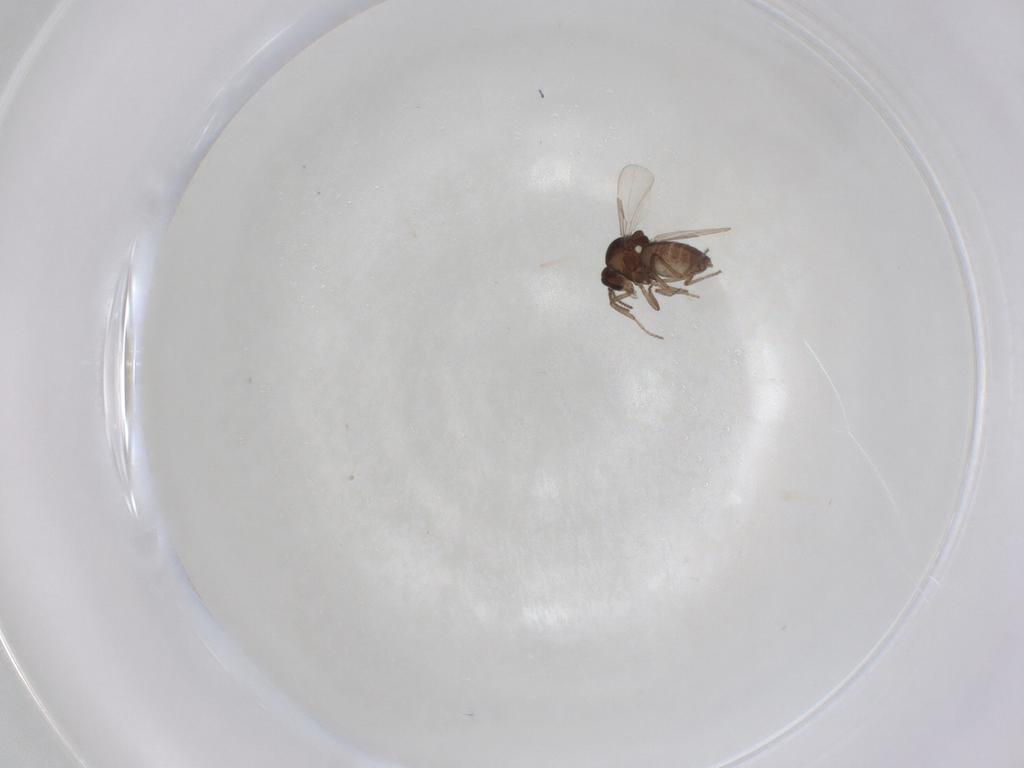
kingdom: Animalia
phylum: Arthropoda
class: Insecta
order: Diptera
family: Ceratopogonidae
